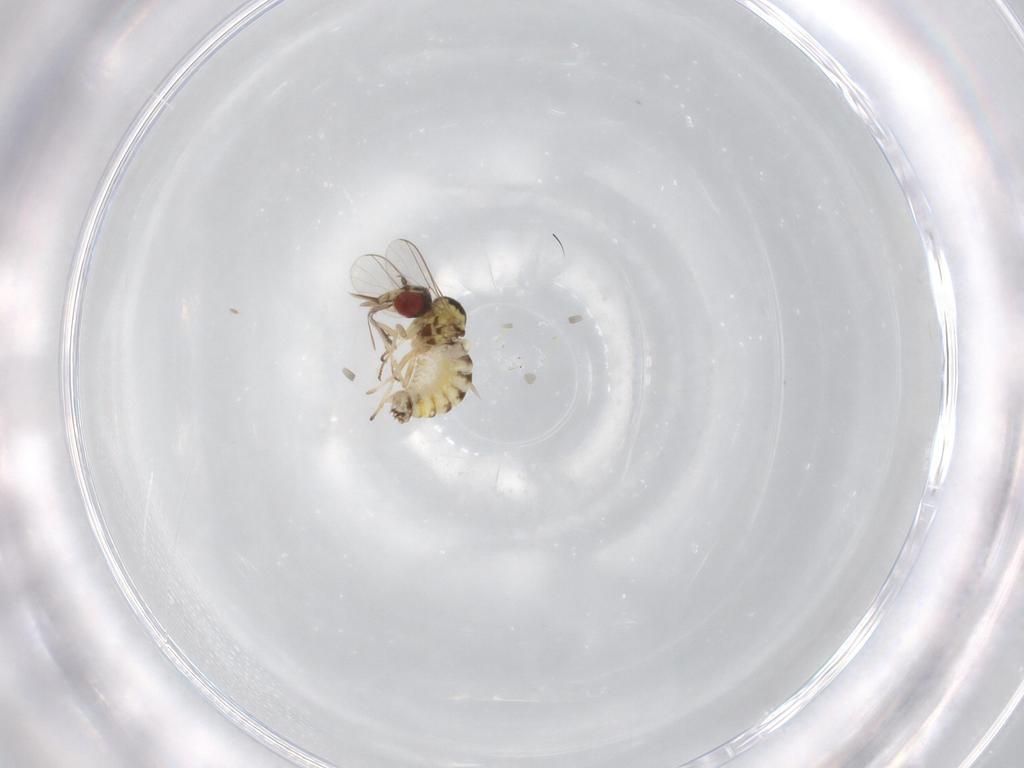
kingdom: Animalia
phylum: Arthropoda
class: Insecta
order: Diptera
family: Bombyliidae
